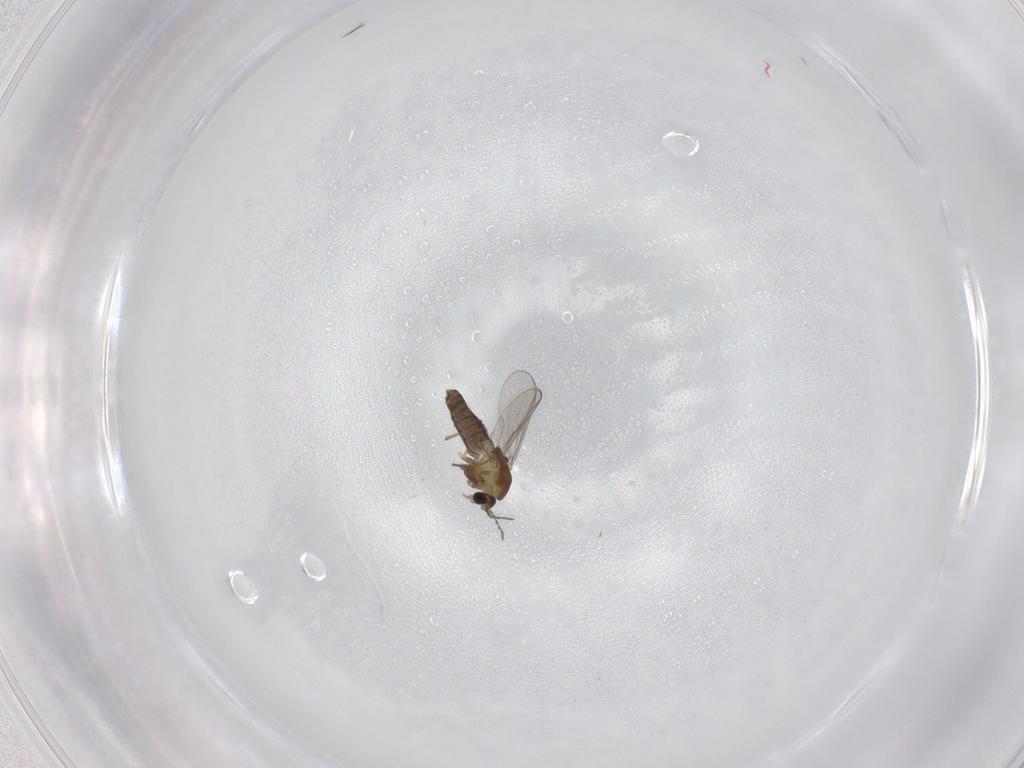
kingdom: Animalia
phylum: Arthropoda
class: Insecta
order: Diptera
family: Chironomidae
